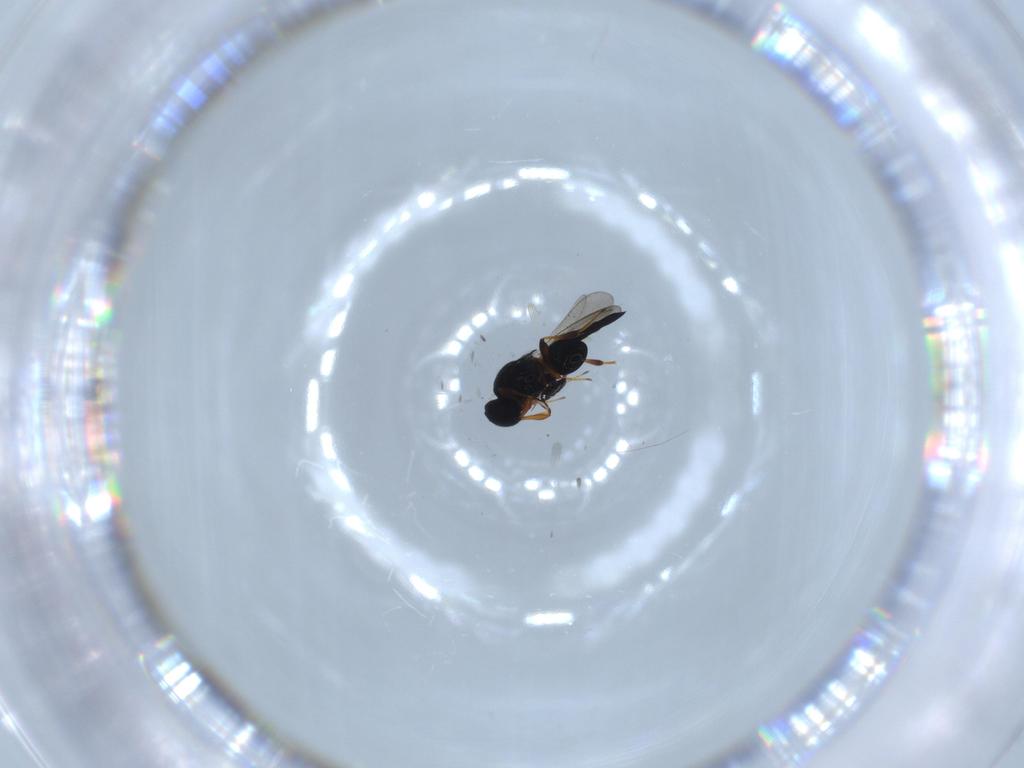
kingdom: Animalia
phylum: Arthropoda
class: Insecta
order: Hymenoptera
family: Platygastridae
